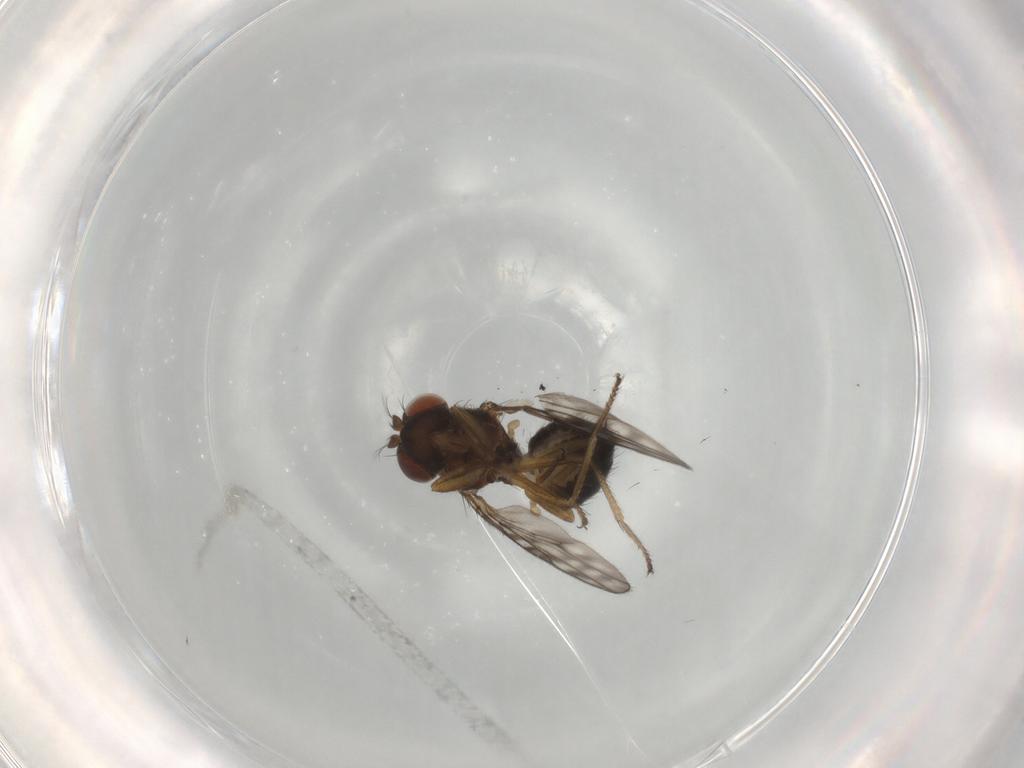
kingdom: Animalia
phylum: Arthropoda
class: Insecta
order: Diptera
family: Ephydridae
